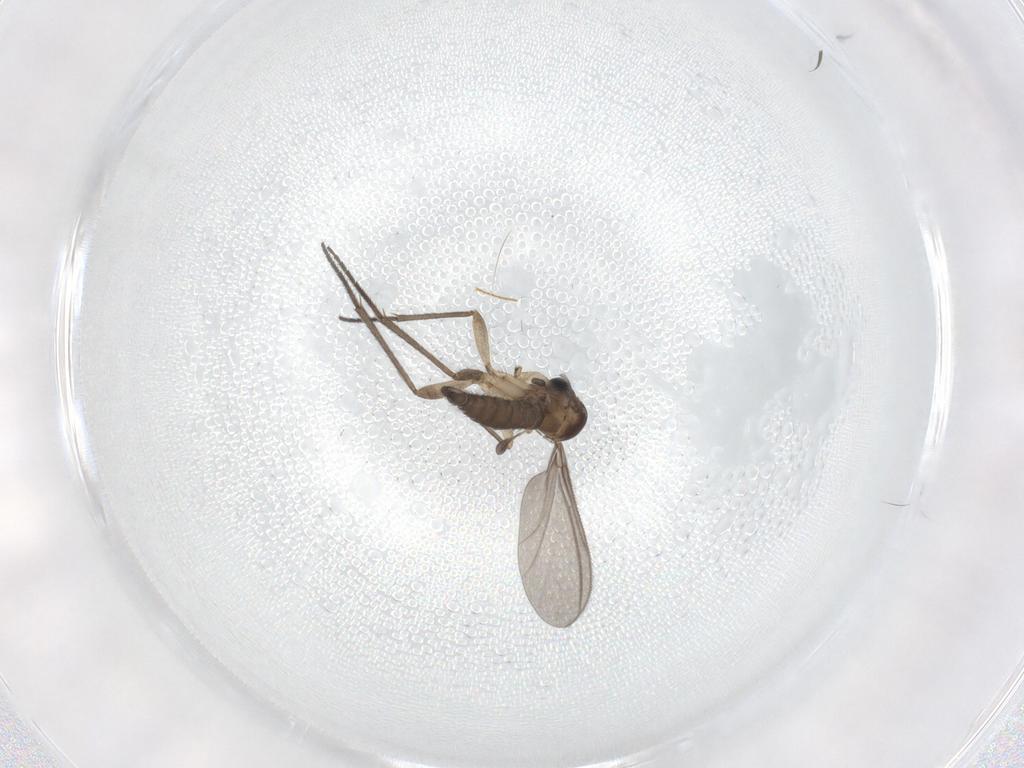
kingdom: Animalia
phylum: Arthropoda
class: Insecta
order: Diptera
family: Sciaridae
